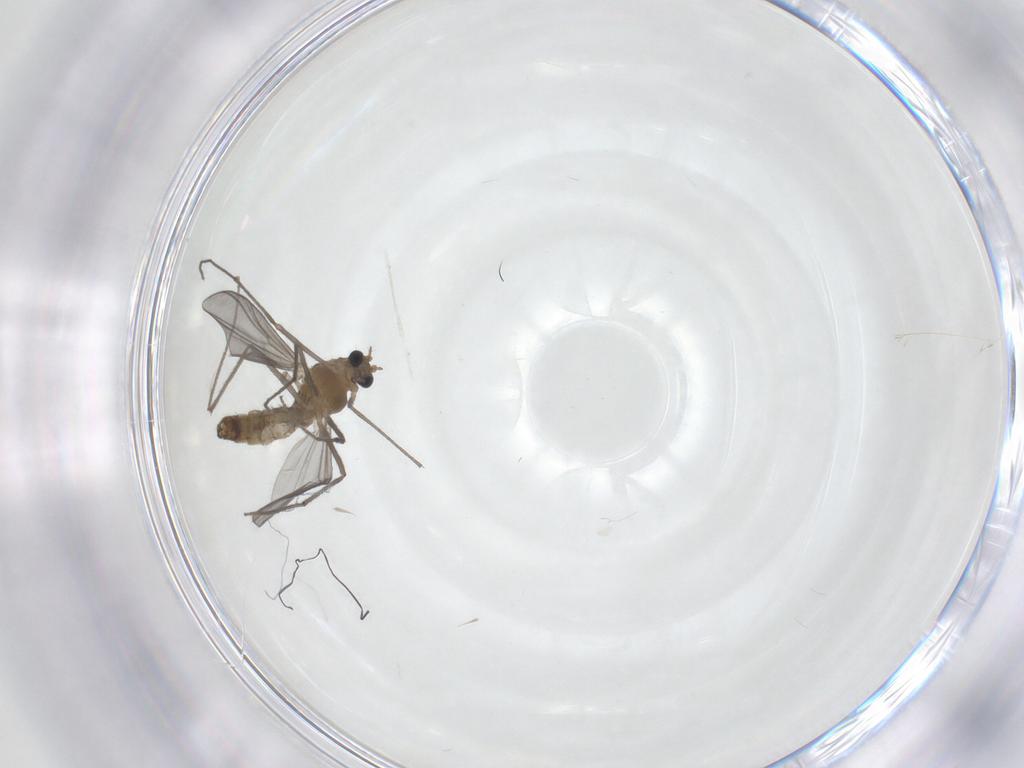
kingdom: Animalia
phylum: Arthropoda
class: Insecta
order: Diptera
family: Chironomidae
